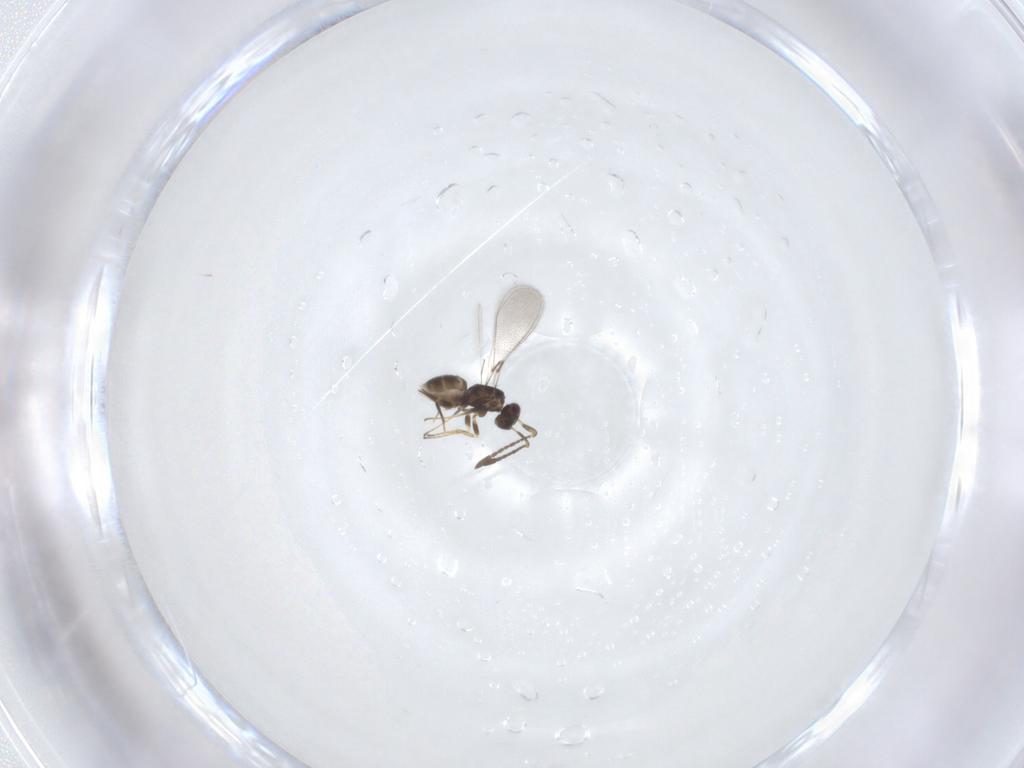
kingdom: Animalia
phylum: Arthropoda
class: Insecta
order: Hymenoptera
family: Mymaridae
